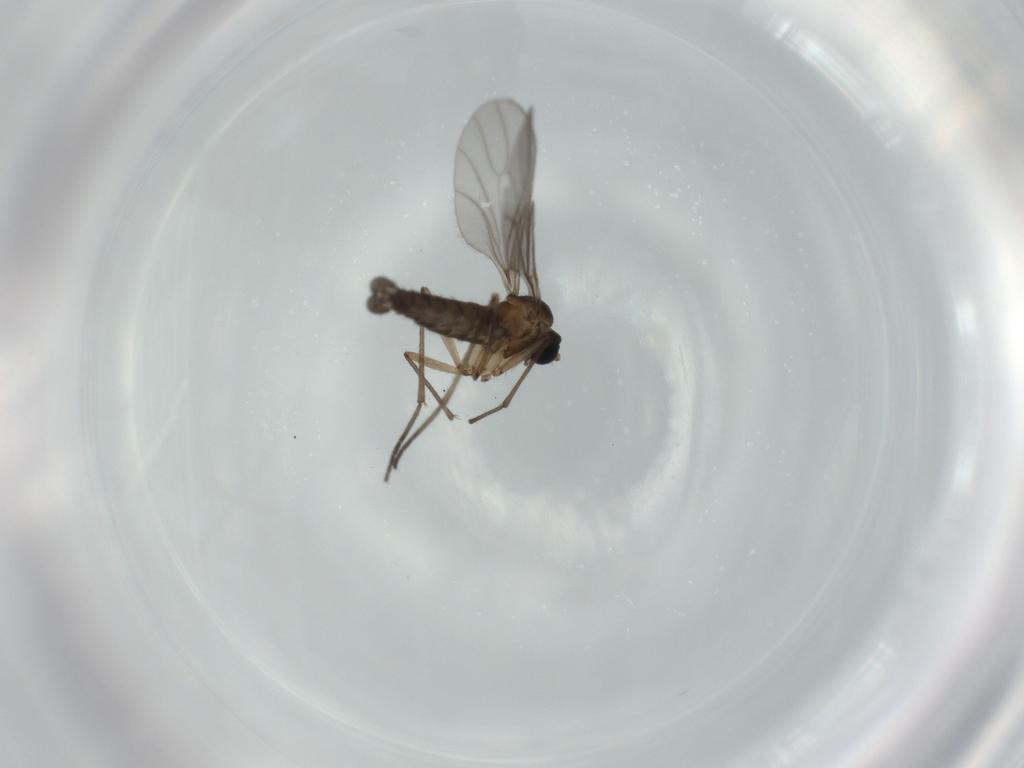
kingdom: Animalia
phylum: Arthropoda
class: Insecta
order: Diptera
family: Sciaridae
